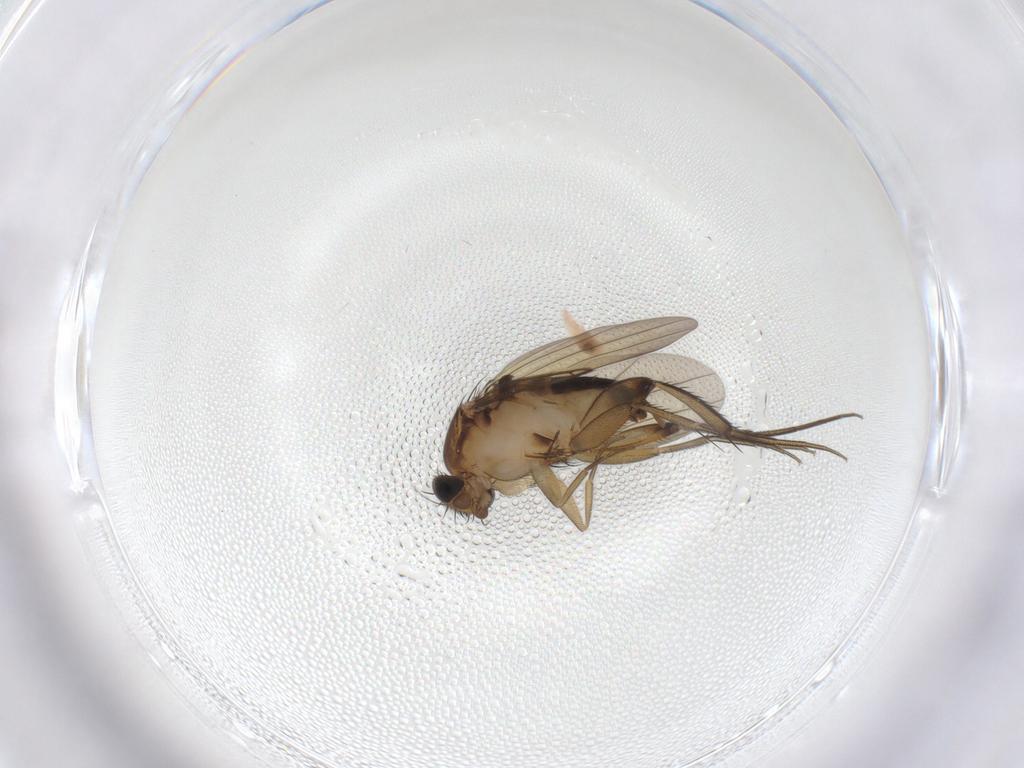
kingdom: Animalia
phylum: Arthropoda
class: Insecta
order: Diptera
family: Phoridae
